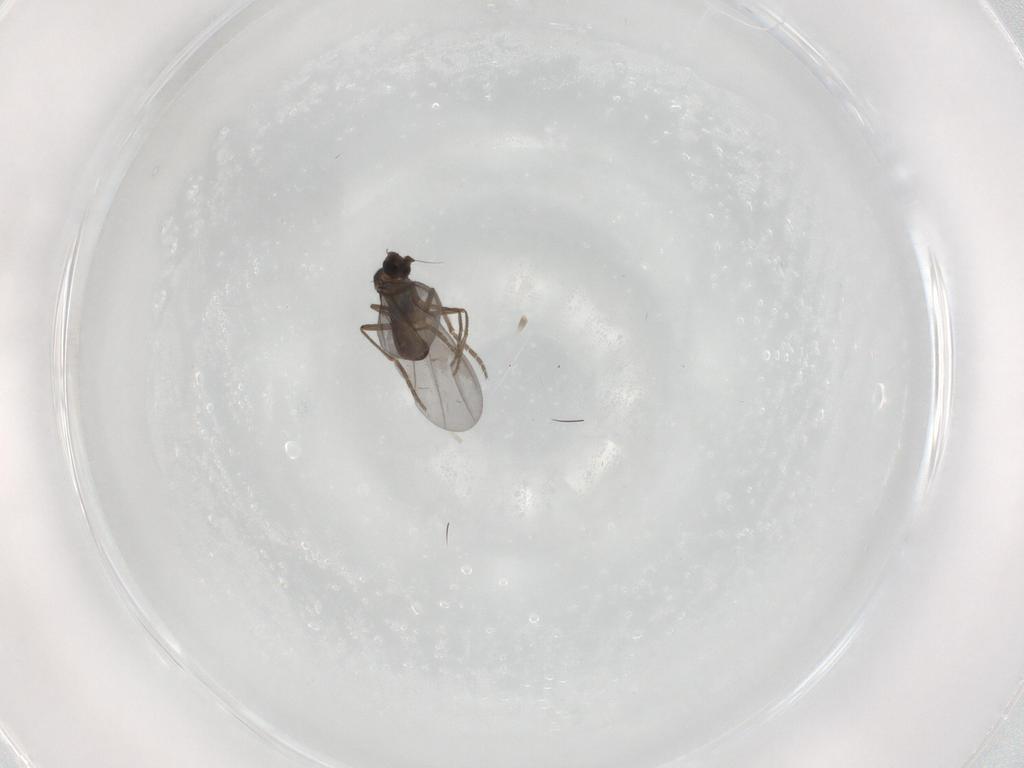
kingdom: Animalia
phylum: Arthropoda
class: Insecta
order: Diptera
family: Phoridae
